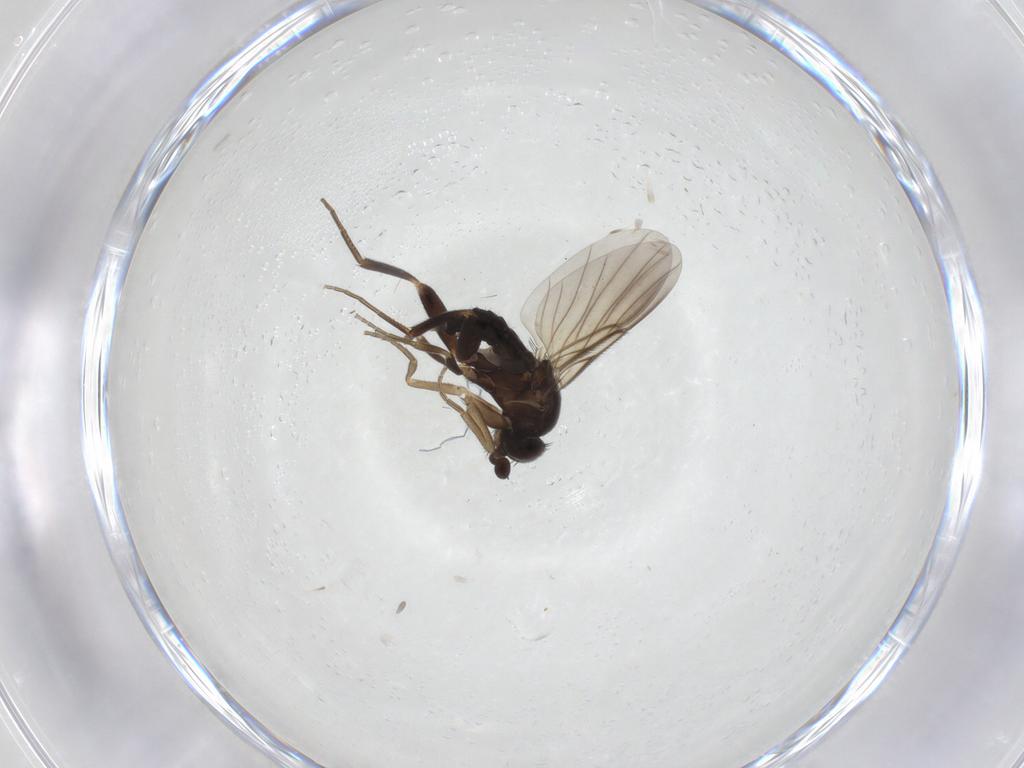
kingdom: Animalia
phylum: Arthropoda
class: Insecta
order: Diptera
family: Phoridae
